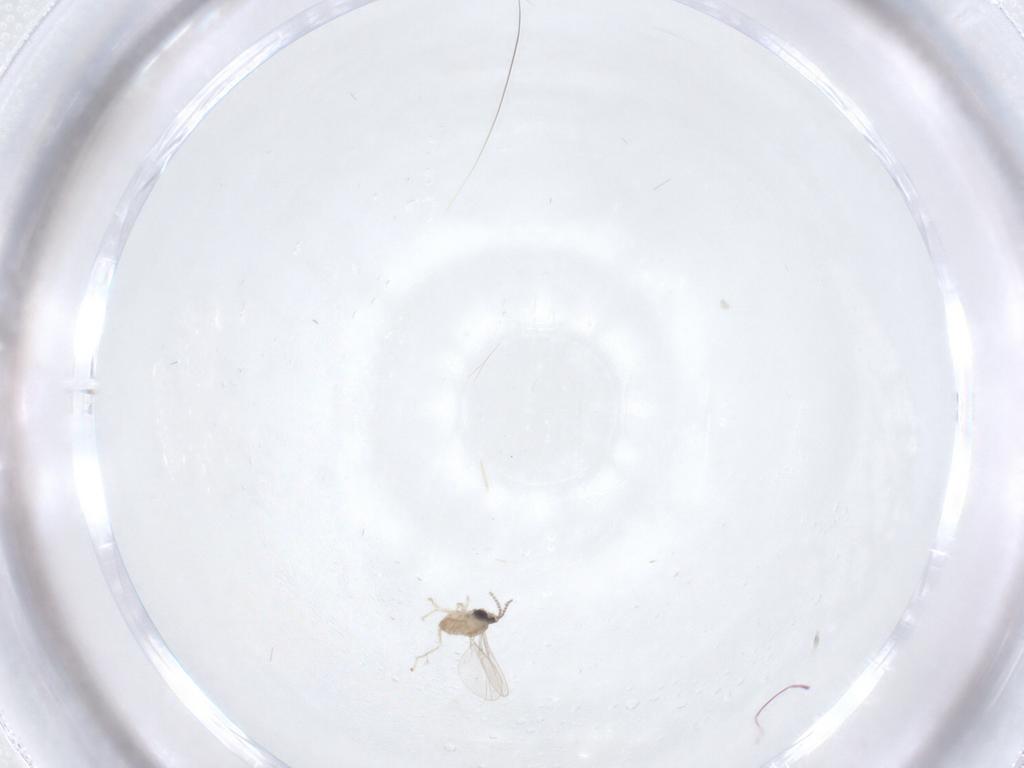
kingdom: Animalia
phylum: Arthropoda
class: Insecta
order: Diptera
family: Cecidomyiidae
